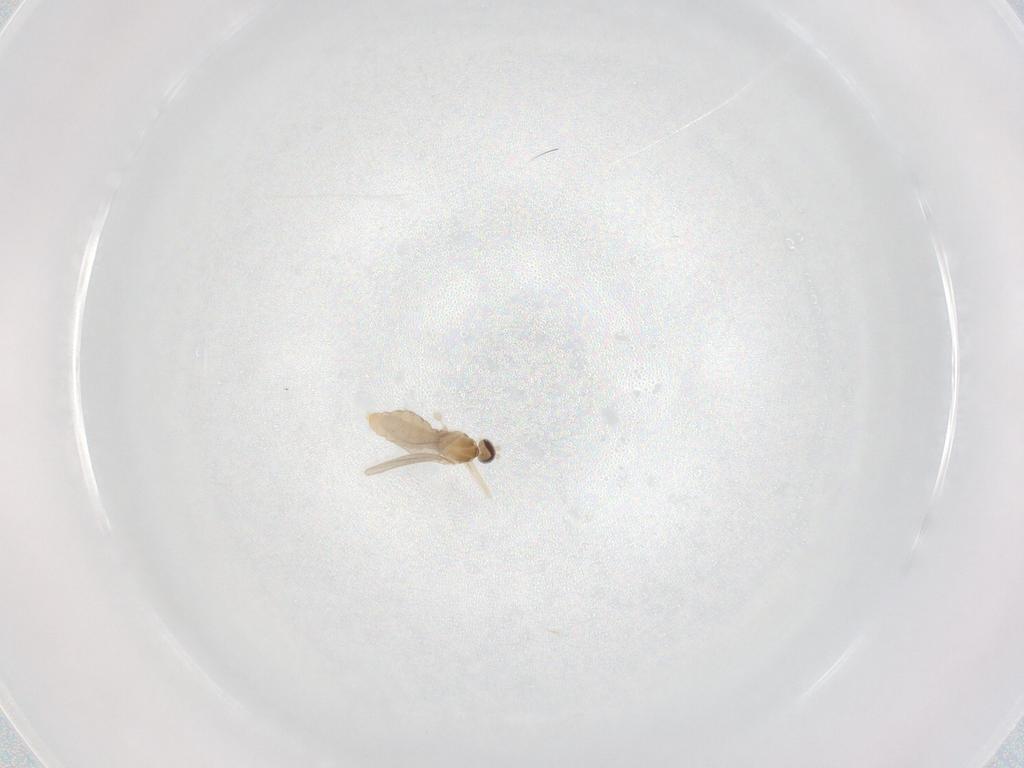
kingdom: Animalia
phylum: Arthropoda
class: Insecta
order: Diptera
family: Cecidomyiidae
